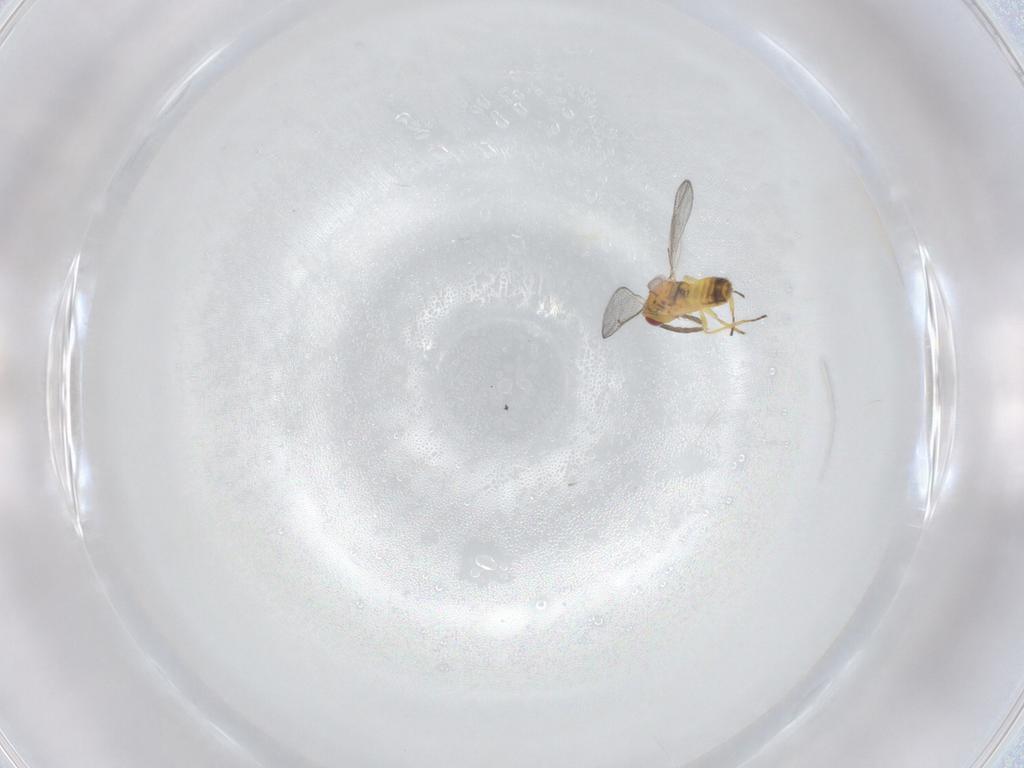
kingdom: Animalia
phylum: Arthropoda
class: Insecta
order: Hymenoptera
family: Eulophidae
